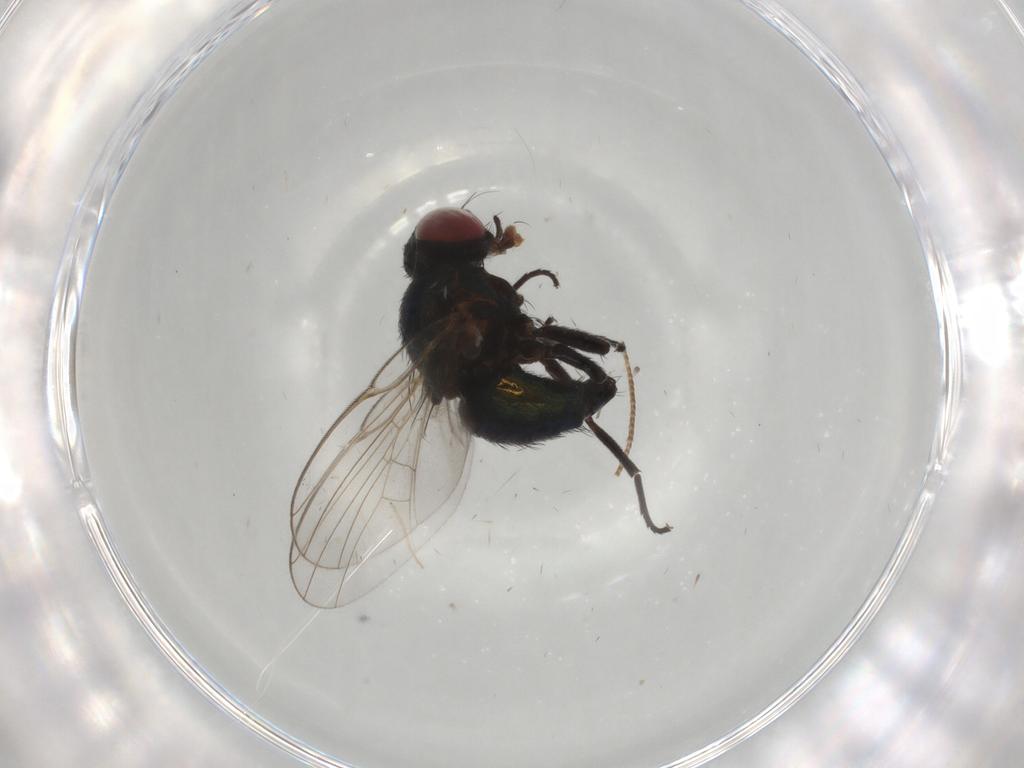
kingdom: Animalia
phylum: Arthropoda
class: Insecta
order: Diptera
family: Agromyzidae
